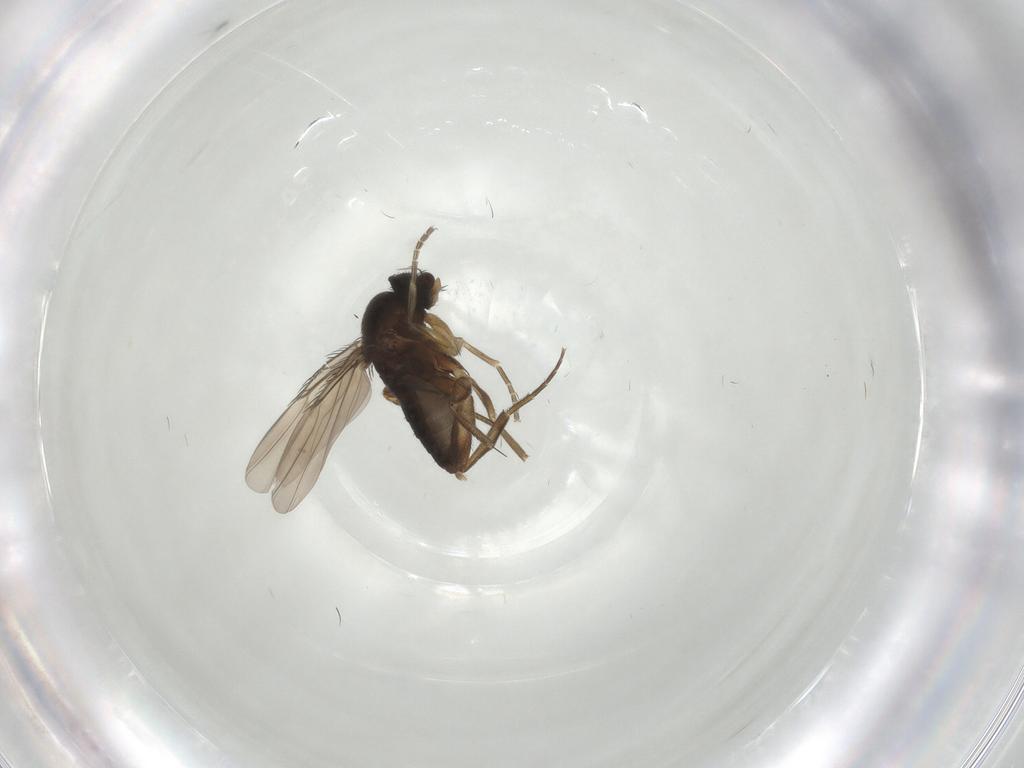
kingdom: Animalia
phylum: Arthropoda
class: Insecta
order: Diptera
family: Phoridae
